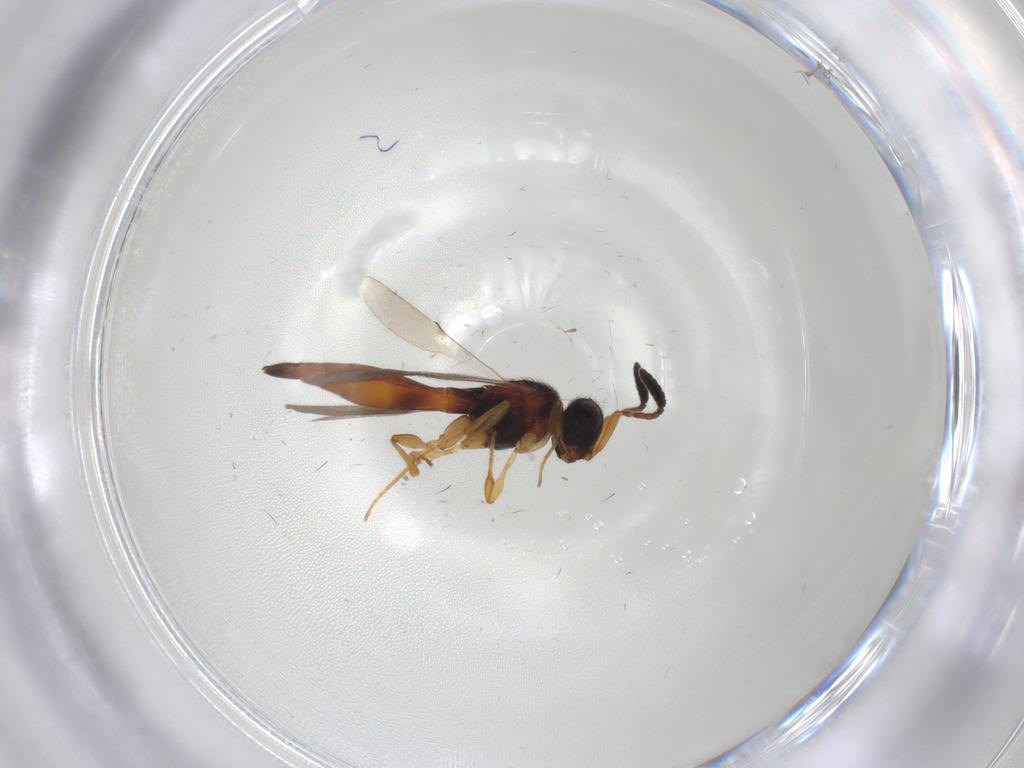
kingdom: Animalia
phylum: Arthropoda
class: Insecta
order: Hymenoptera
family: Scelionidae
